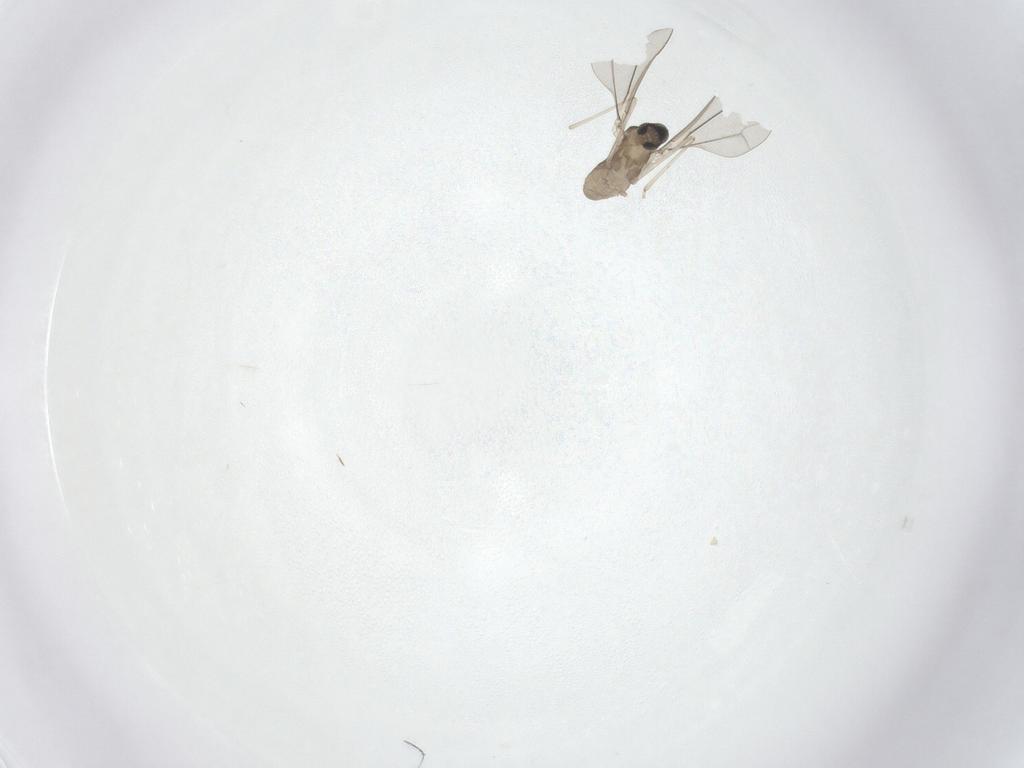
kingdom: Animalia
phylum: Arthropoda
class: Insecta
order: Diptera
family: Cecidomyiidae
